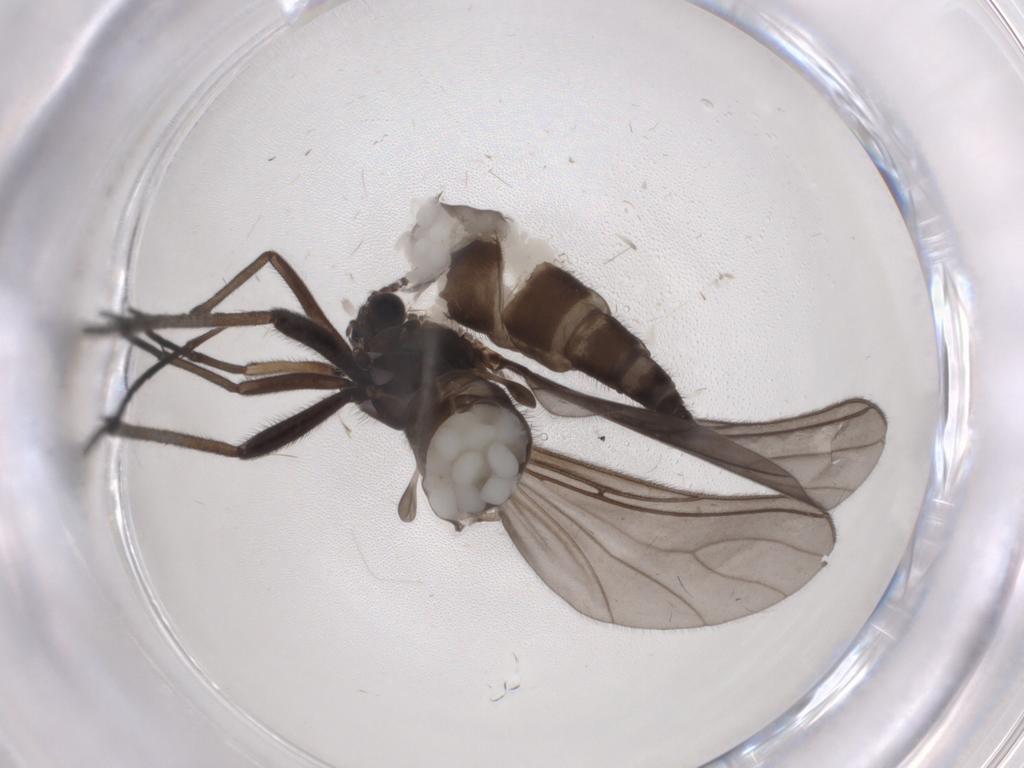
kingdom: Animalia
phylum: Arthropoda
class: Insecta
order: Diptera
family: Sciaridae
